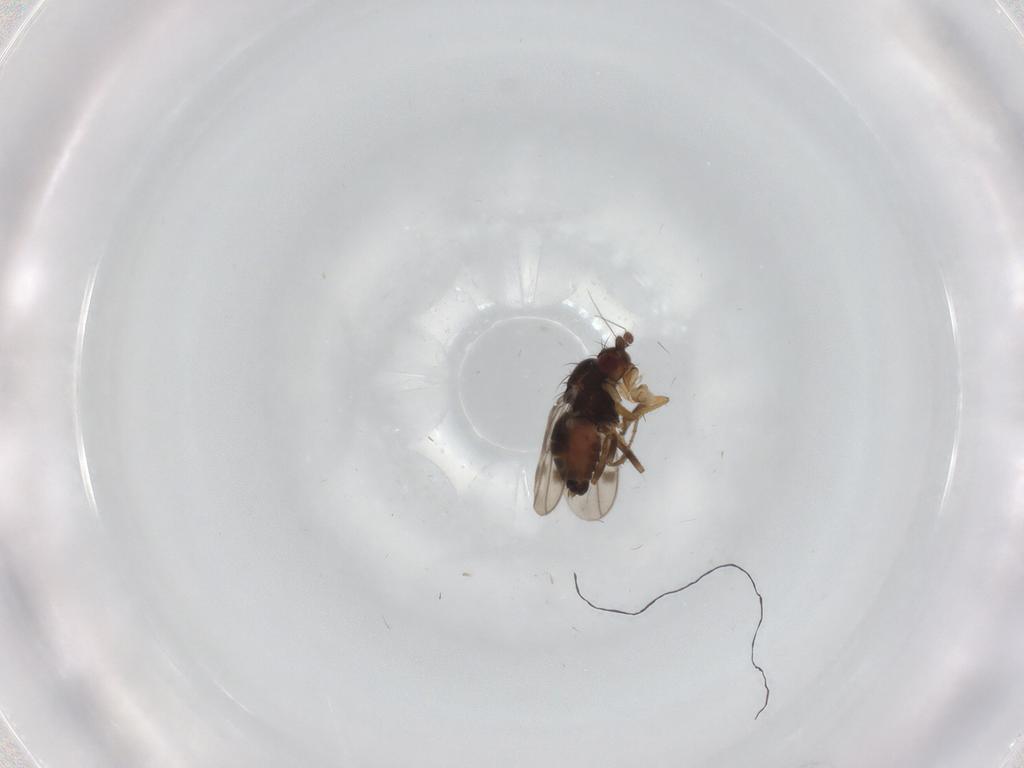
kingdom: Animalia
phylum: Arthropoda
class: Insecta
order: Diptera
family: Sphaeroceridae
